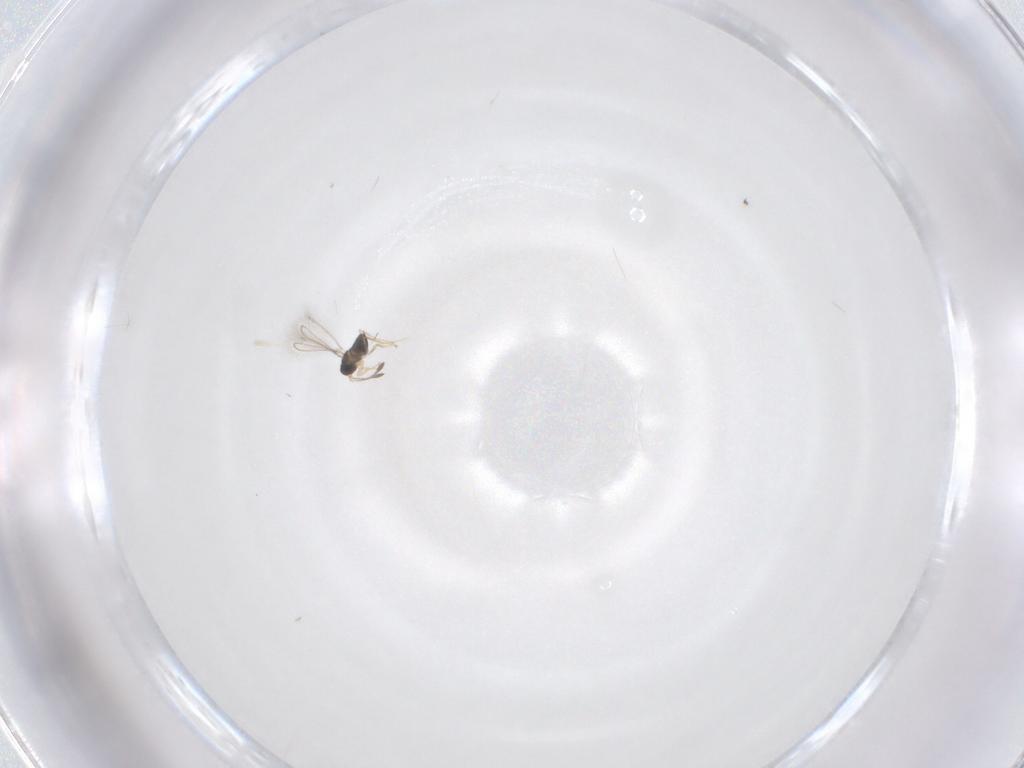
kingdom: Animalia
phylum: Arthropoda
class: Insecta
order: Hymenoptera
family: Mymaridae
